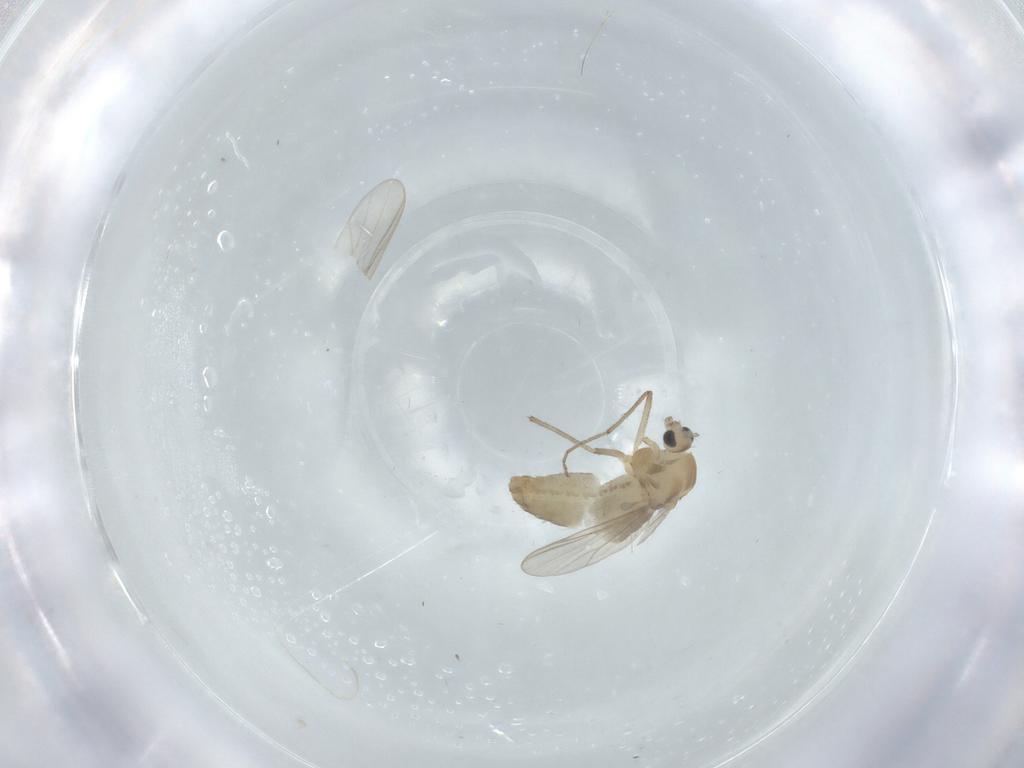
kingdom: Animalia
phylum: Arthropoda
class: Insecta
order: Diptera
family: Chironomidae
